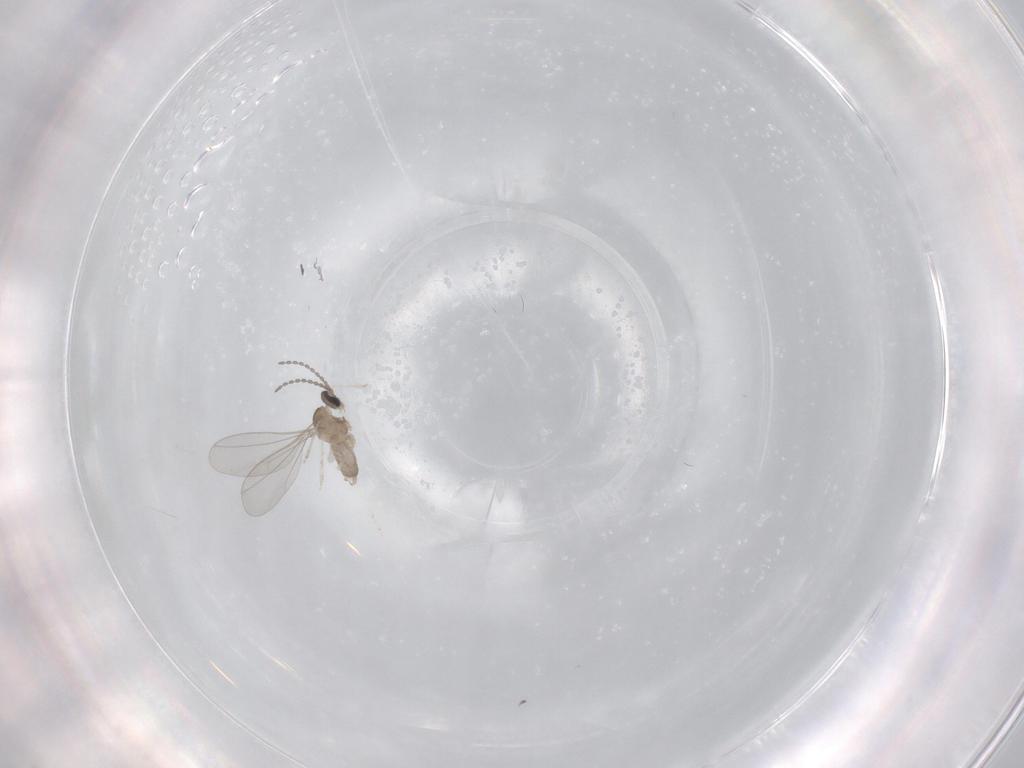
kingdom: Animalia
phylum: Arthropoda
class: Insecta
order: Diptera
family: Cecidomyiidae
